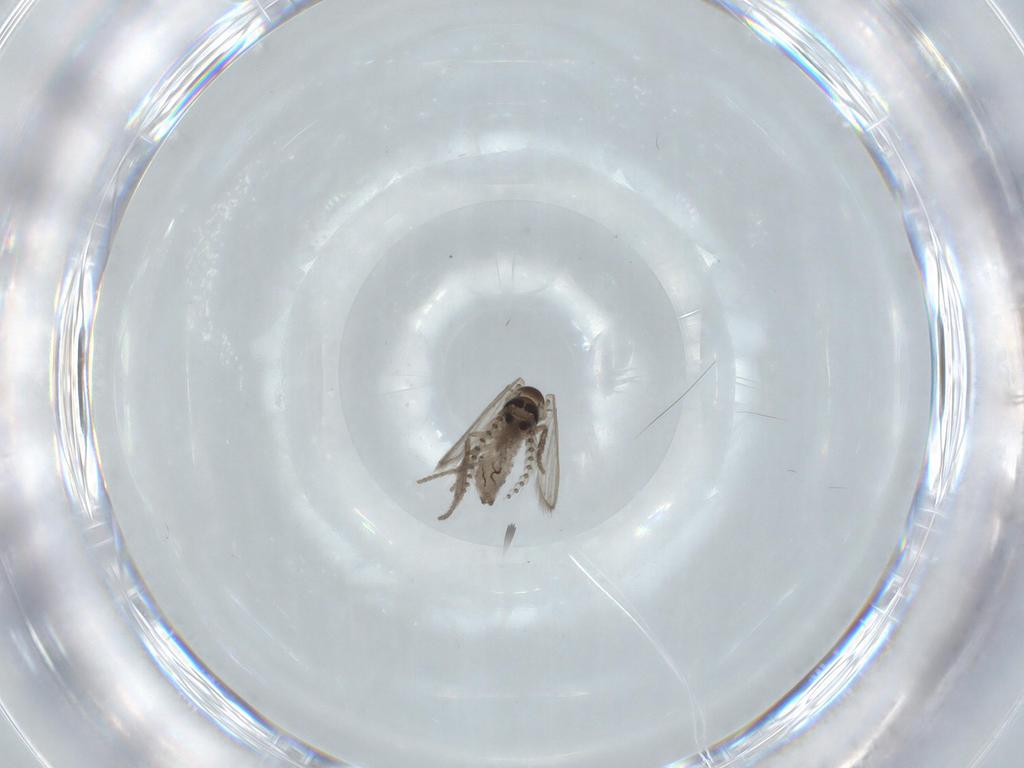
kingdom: Animalia
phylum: Arthropoda
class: Insecta
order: Diptera
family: Psychodidae
